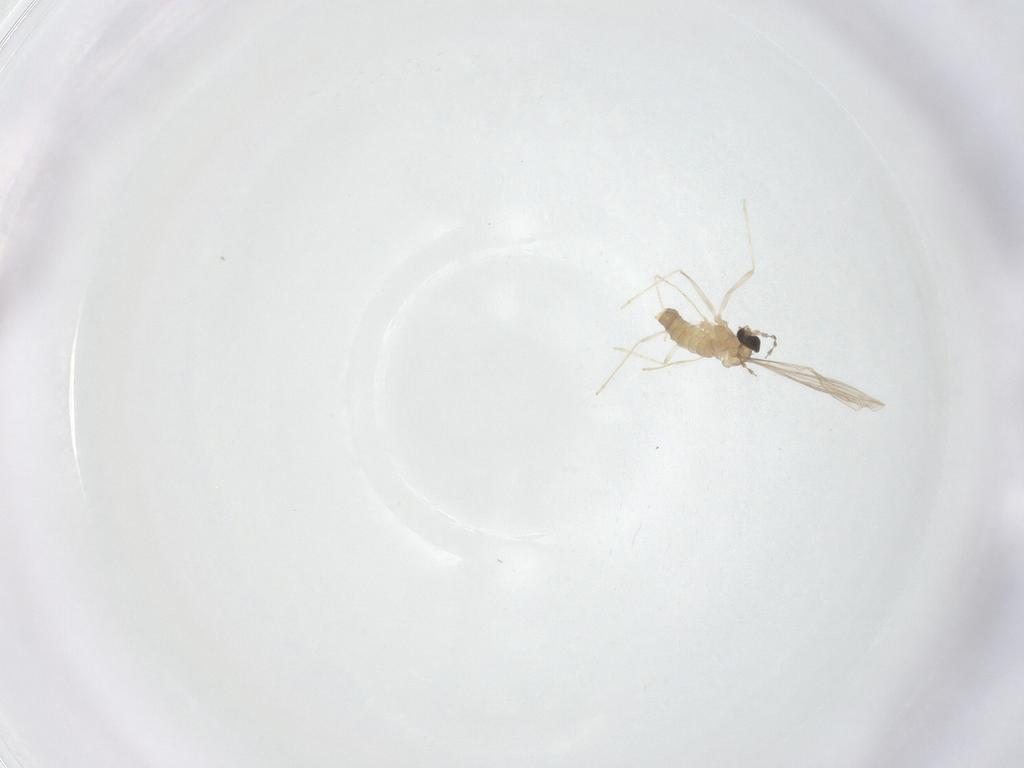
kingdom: Animalia
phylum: Arthropoda
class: Insecta
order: Diptera
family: Cecidomyiidae
